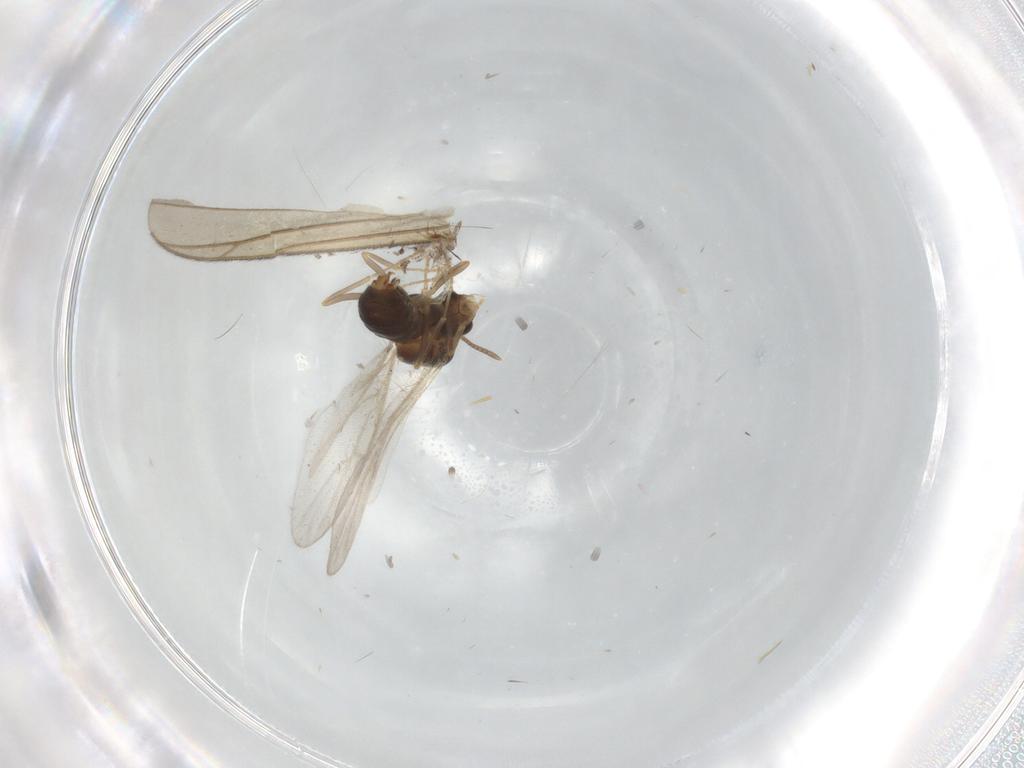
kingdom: Animalia
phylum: Arthropoda
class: Insecta
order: Hymenoptera
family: Formicidae
